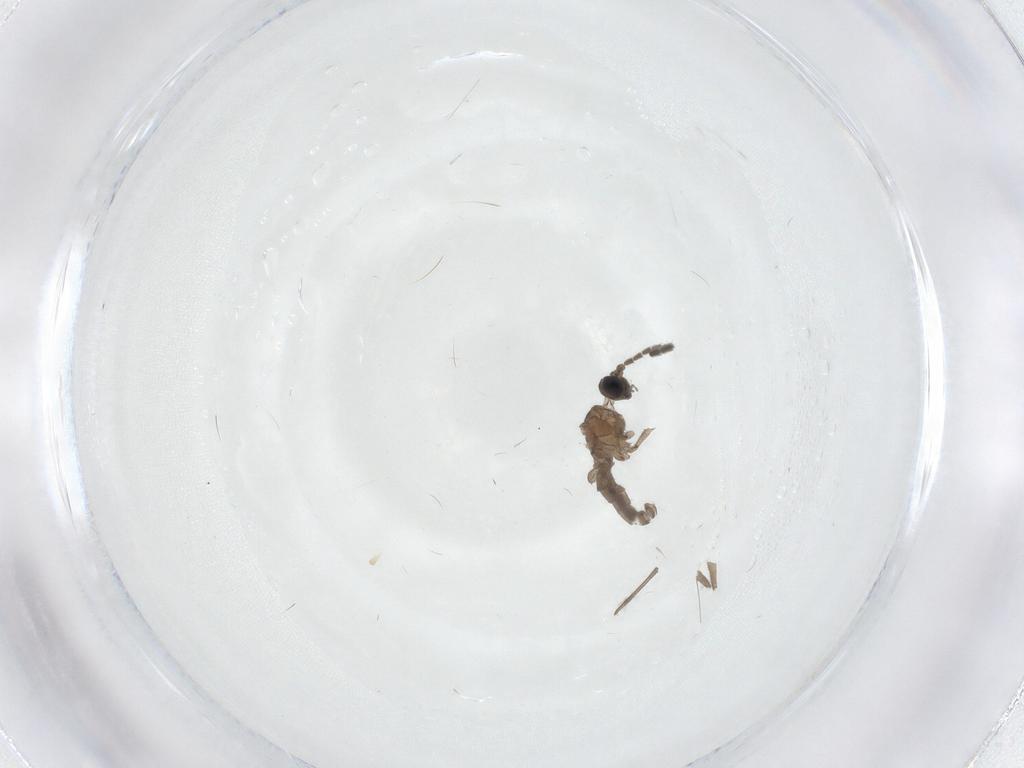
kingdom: Animalia
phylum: Arthropoda
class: Insecta
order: Diptera
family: Cecidomyiidae
